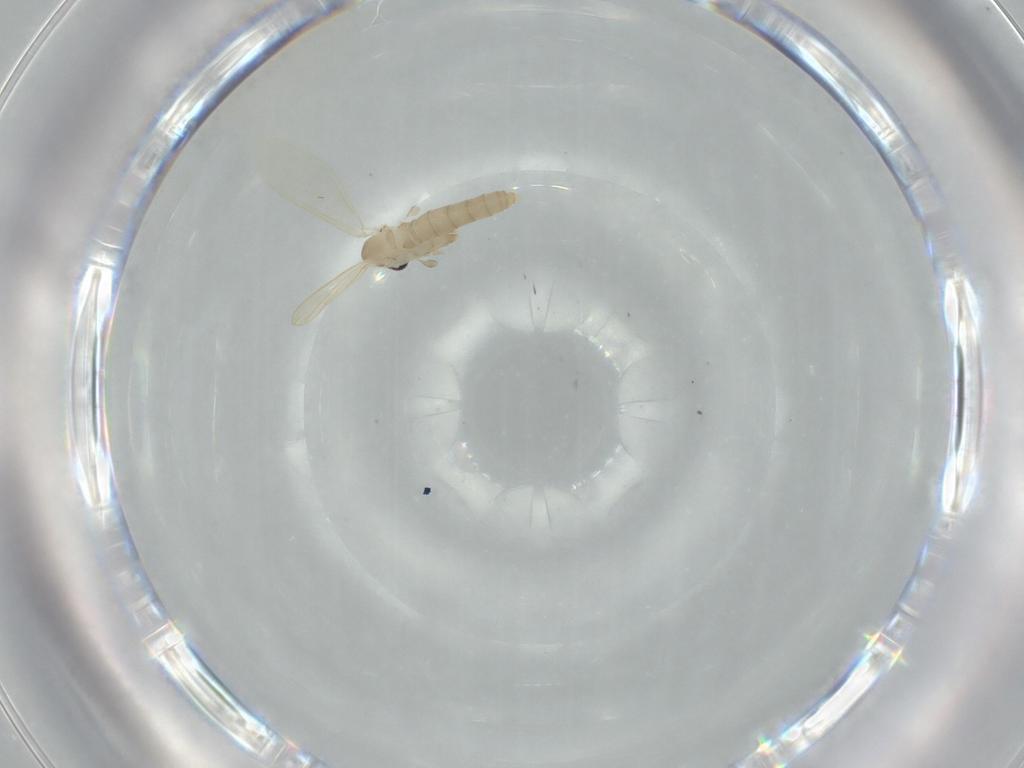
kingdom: Animalia
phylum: Arthropoda
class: Insecta
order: Diptera
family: Psychodidae
